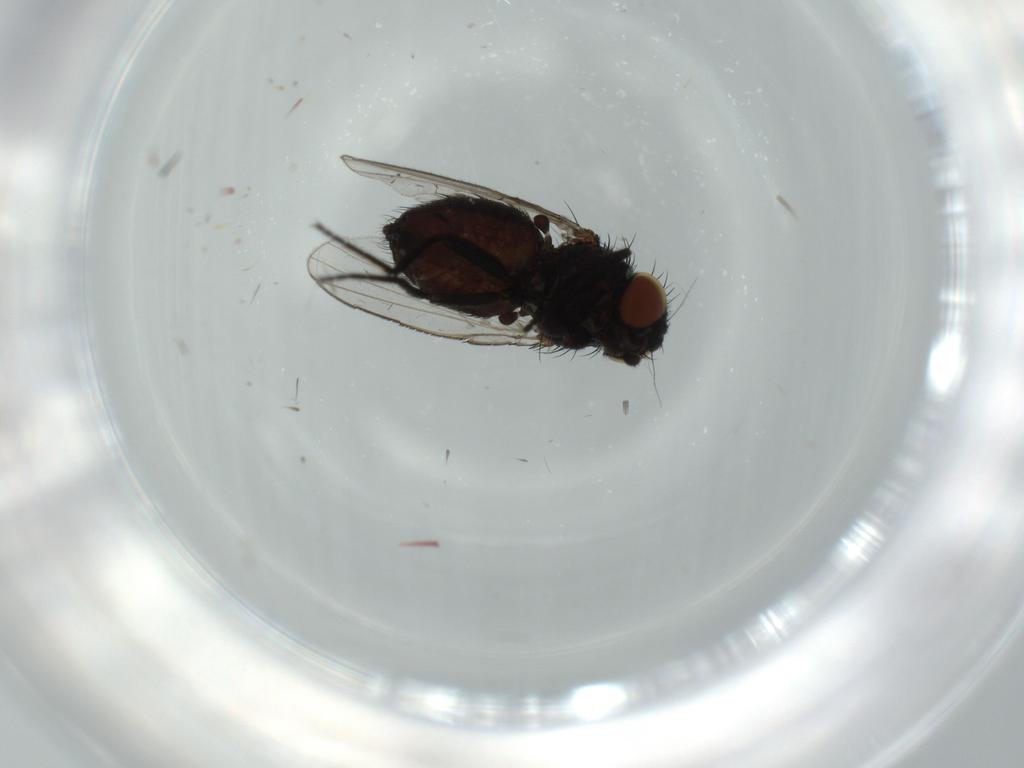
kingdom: Animalia
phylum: Arthropoda
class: Insecta
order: Diptera
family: Milichiidae
